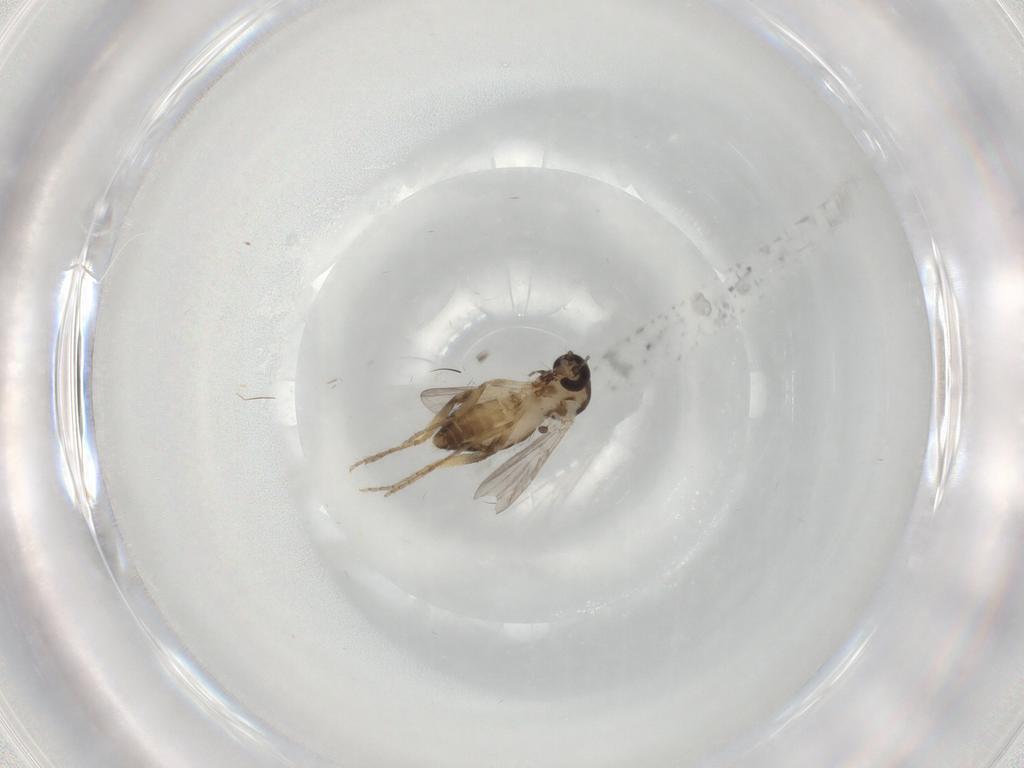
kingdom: Animalia
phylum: Arthropoda
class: Insecta
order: Diptera
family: Ceratopogonidae
